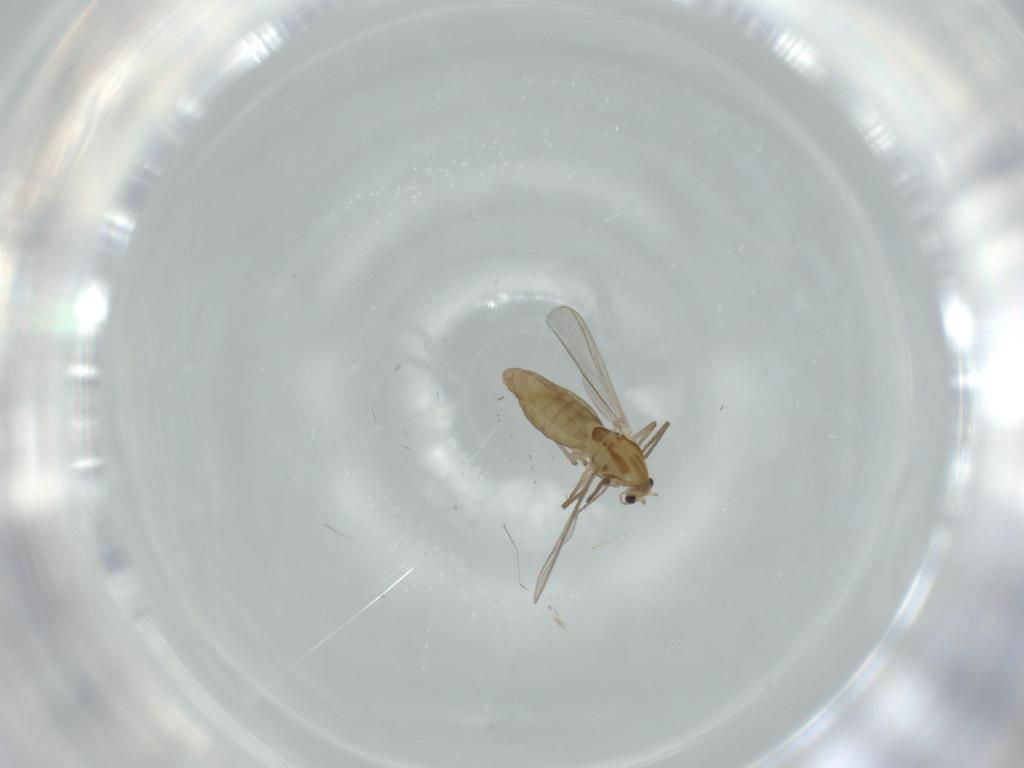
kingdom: Animalia
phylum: Arthropoda
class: Insecta
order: Diptera
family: Chironomidae
